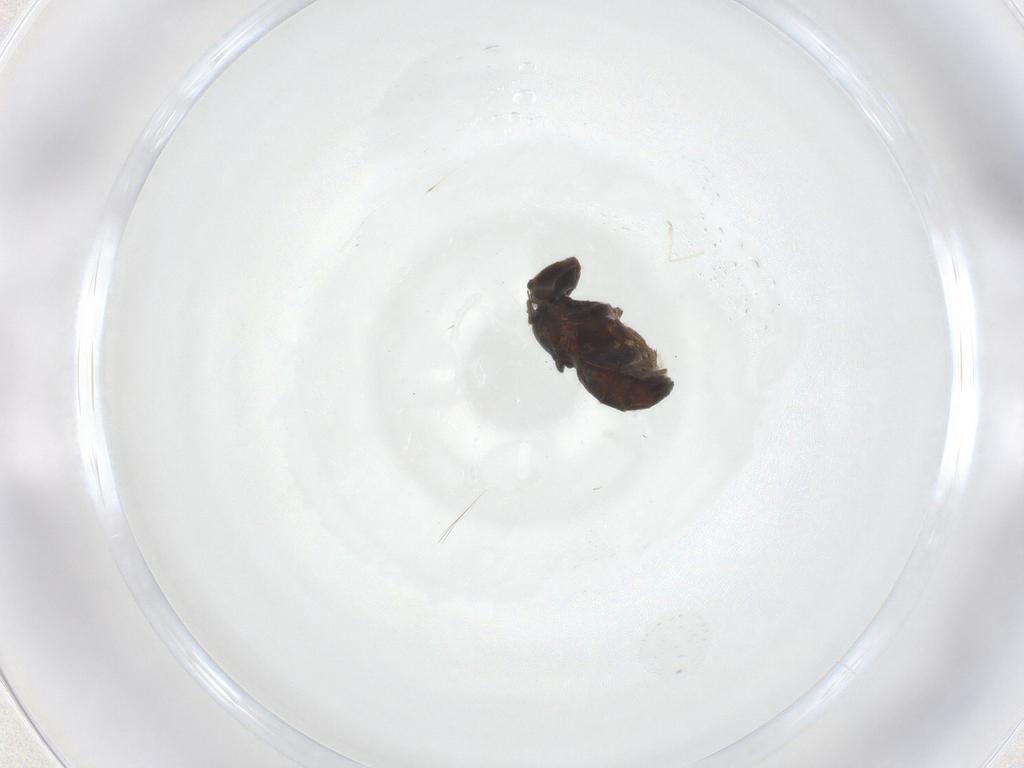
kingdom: Animalia
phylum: Arthropoda
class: Insecta
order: Diptera
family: Dolichopodidae
